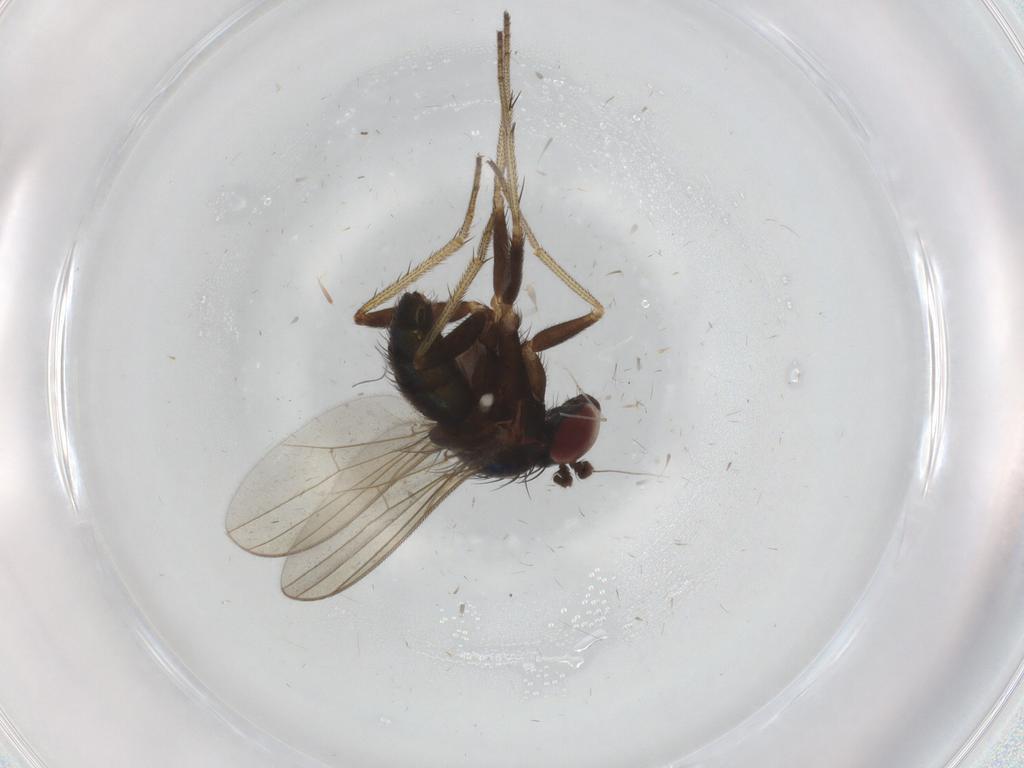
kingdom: Animalia
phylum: Arthropoda
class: Insecta
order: Diptera
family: Dolichopodidae
